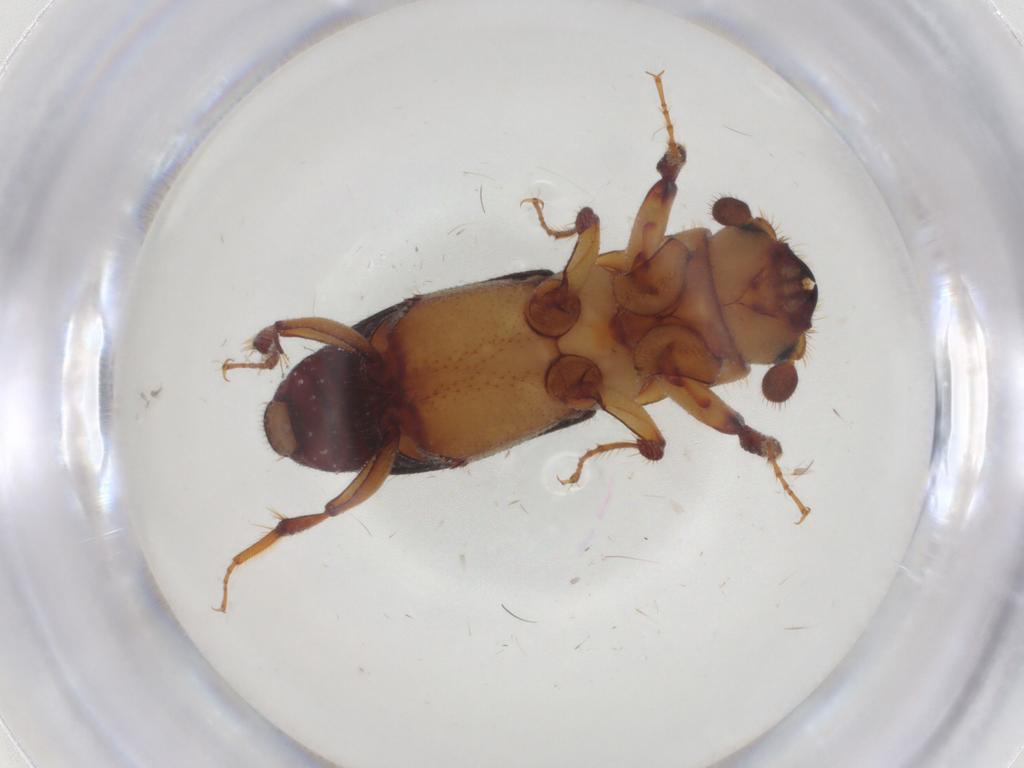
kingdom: Animalia
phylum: Arthropoda
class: Insecta
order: Coleoptera
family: Curculionidae
